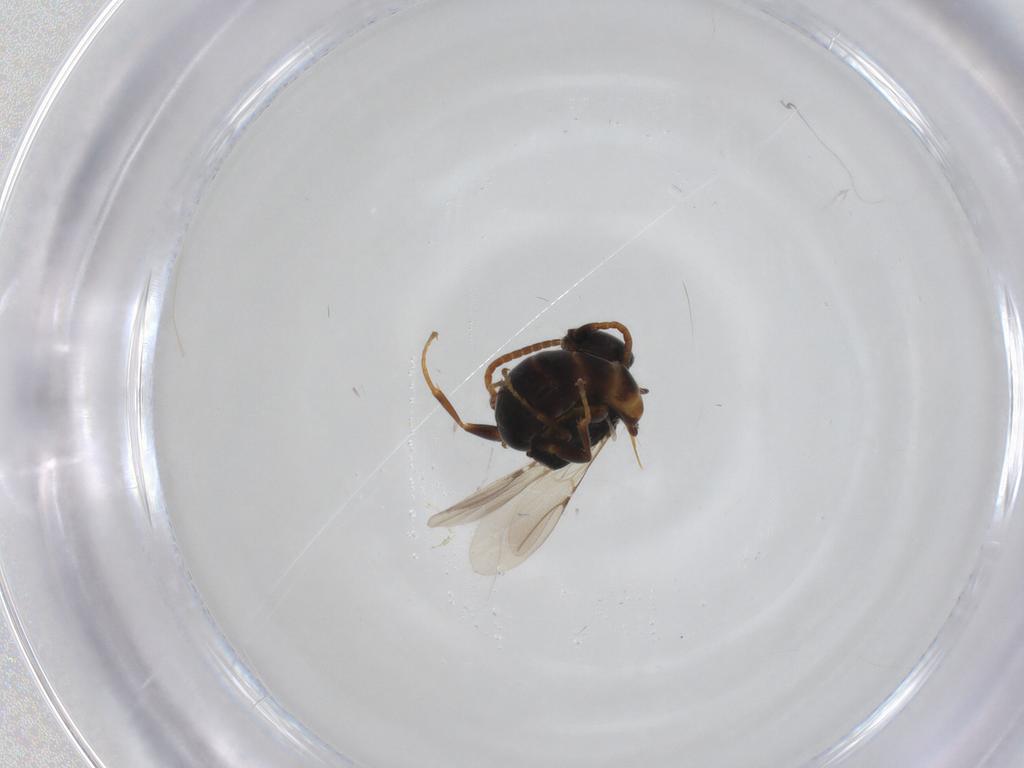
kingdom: Animalia
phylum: Arthropoda
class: Insecta
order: Hymenoptera
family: Bethylidae
